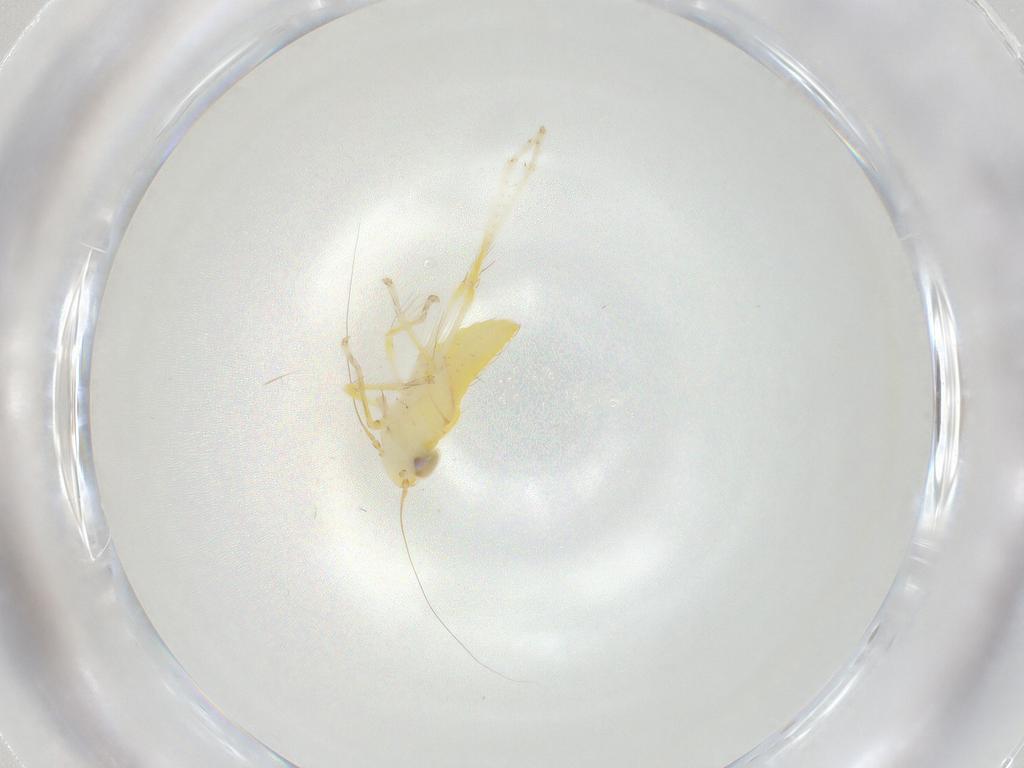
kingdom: Animalia
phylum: Arthropoda
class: Insecta
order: Hemiptera
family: Cicadellidae
